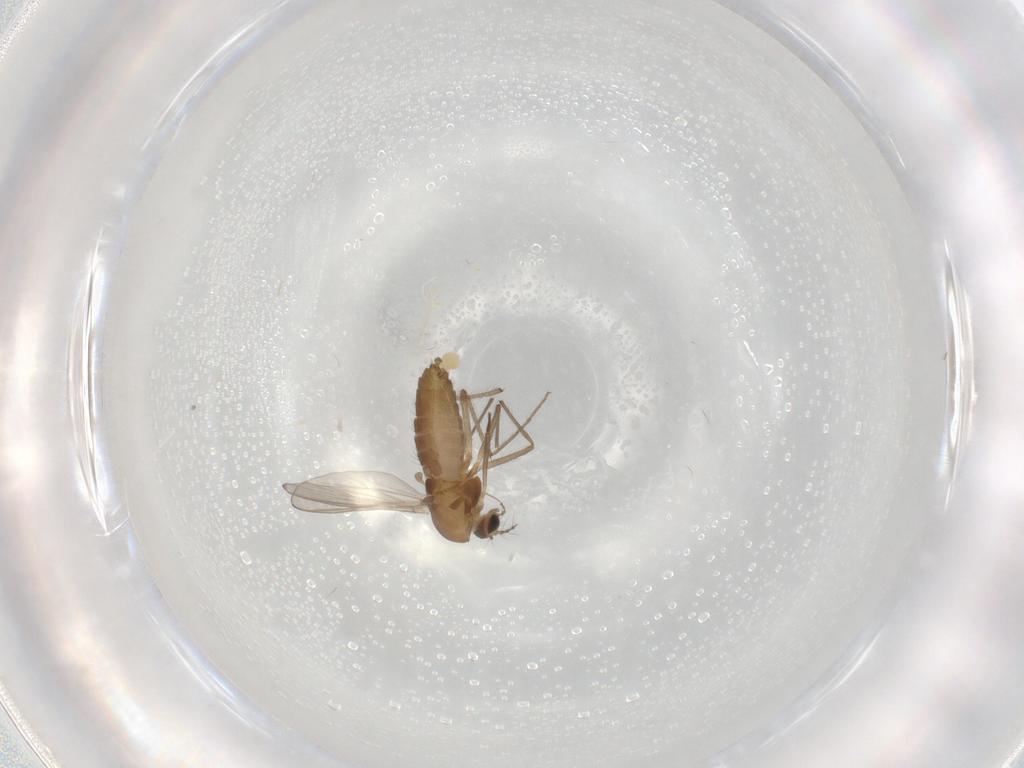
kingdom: Animalia
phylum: Arthropoda
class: Insecta
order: Diptera
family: Chironomidae
